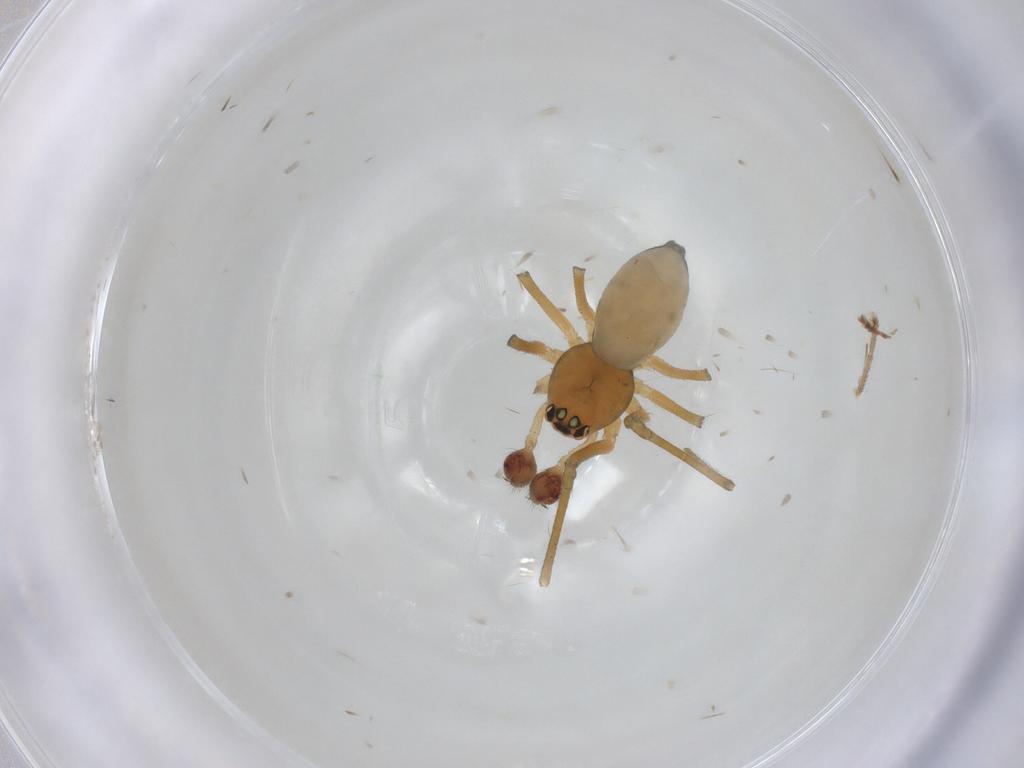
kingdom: Animalia
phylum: Arthropoda
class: Arachnida
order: Araneae
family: Linyphiidae
